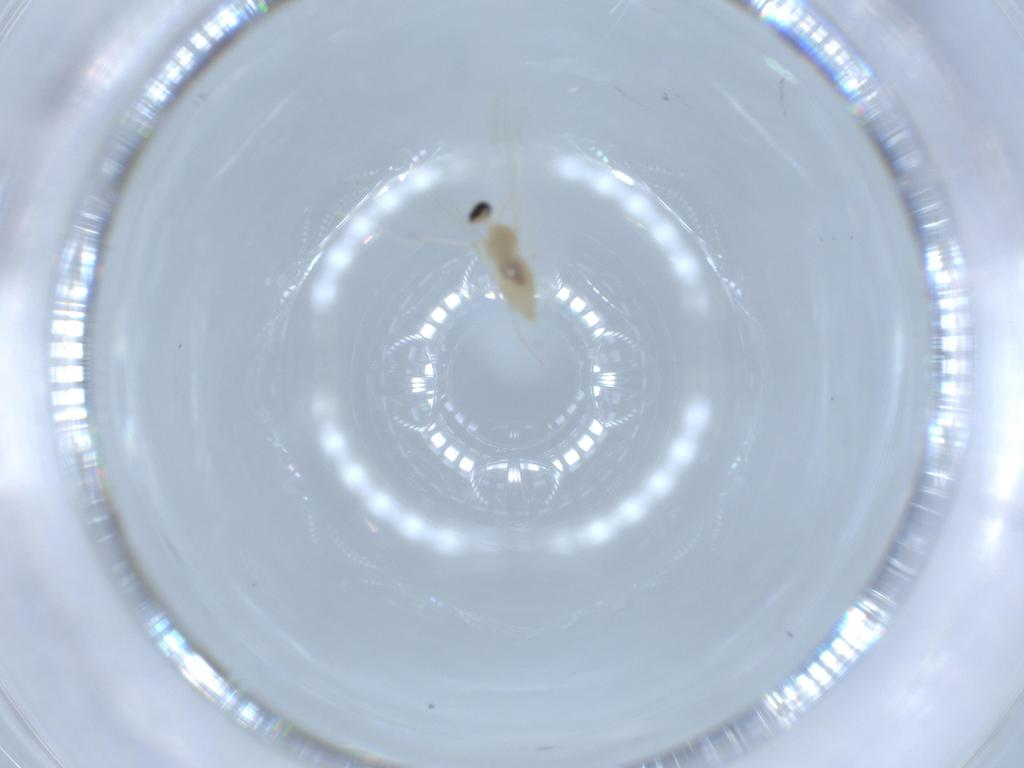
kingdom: Animalia
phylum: Arthropoda
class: Insecta
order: Diptera
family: Cecidomyiidae
